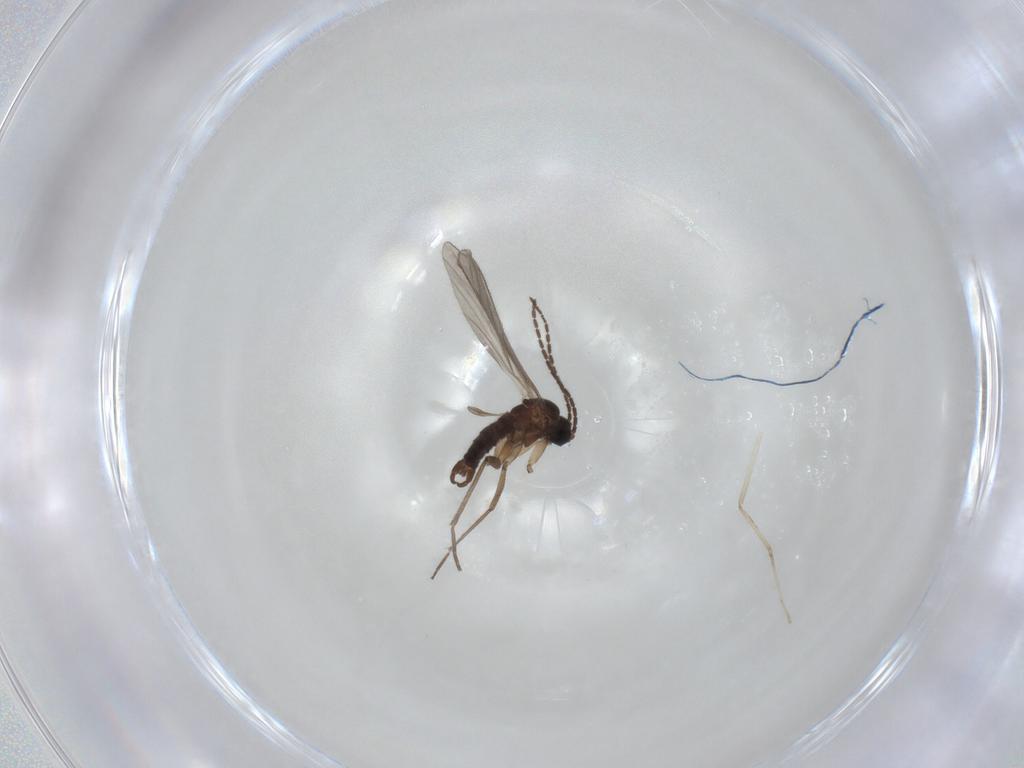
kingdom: Animalia
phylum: Arthropoda
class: Insecta
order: Diptera
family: Sciaridae
